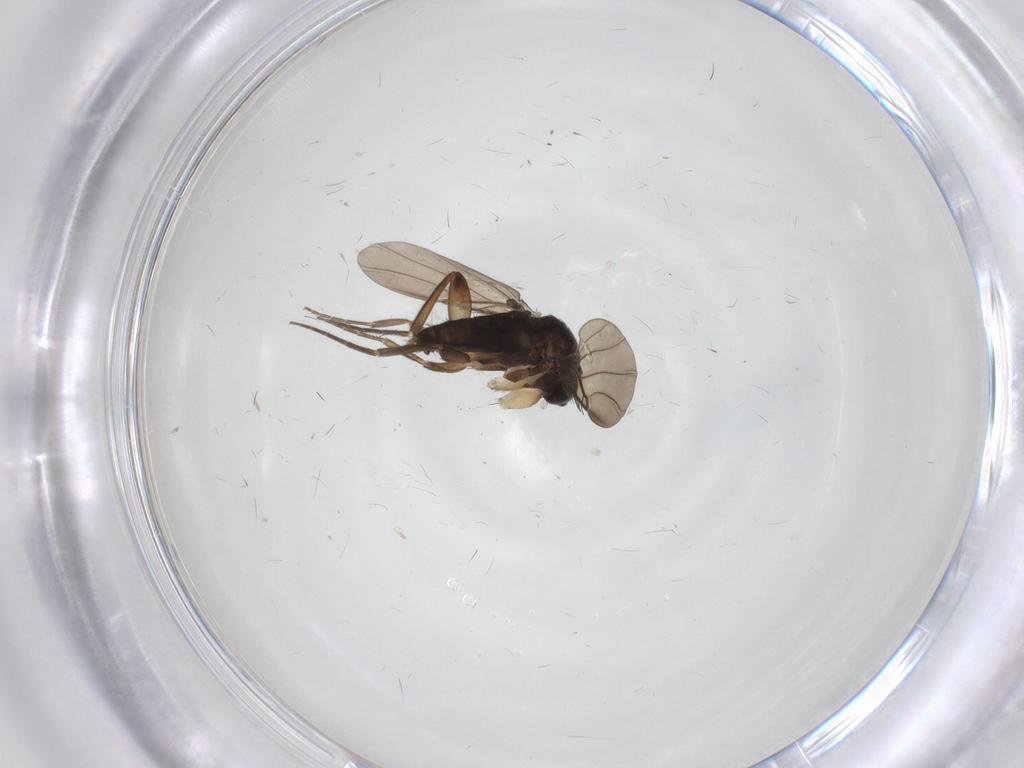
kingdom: Animalia
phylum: Arthropoda
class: Insecta
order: Diptera
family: Phoridae
